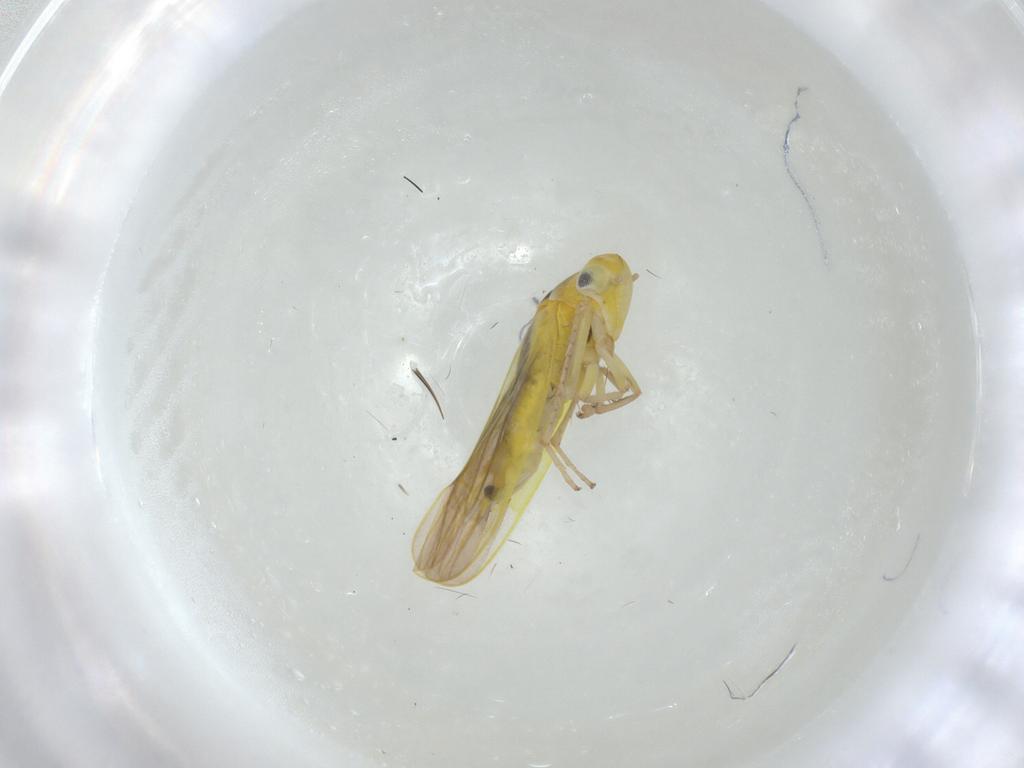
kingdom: Animalia
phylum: Arthropoda
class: Insecta
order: Hemiptera
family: Cicadellidae
